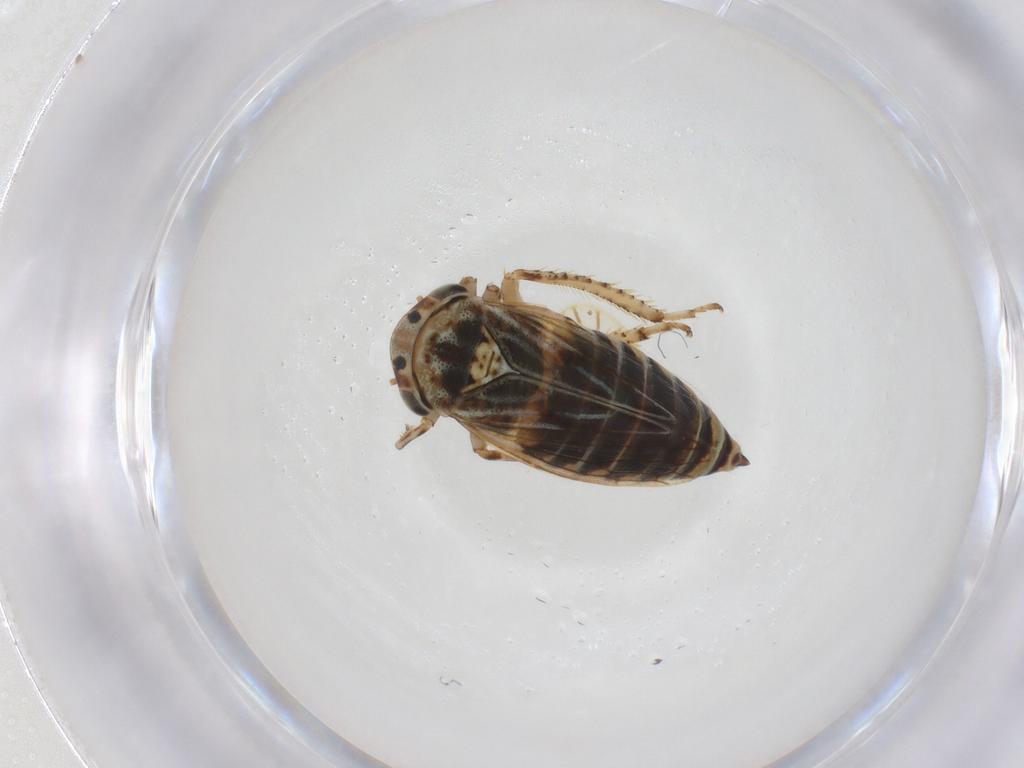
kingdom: Animalia
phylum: Arthropoda
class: Insecta
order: Hemiptera
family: Cicadellidae
